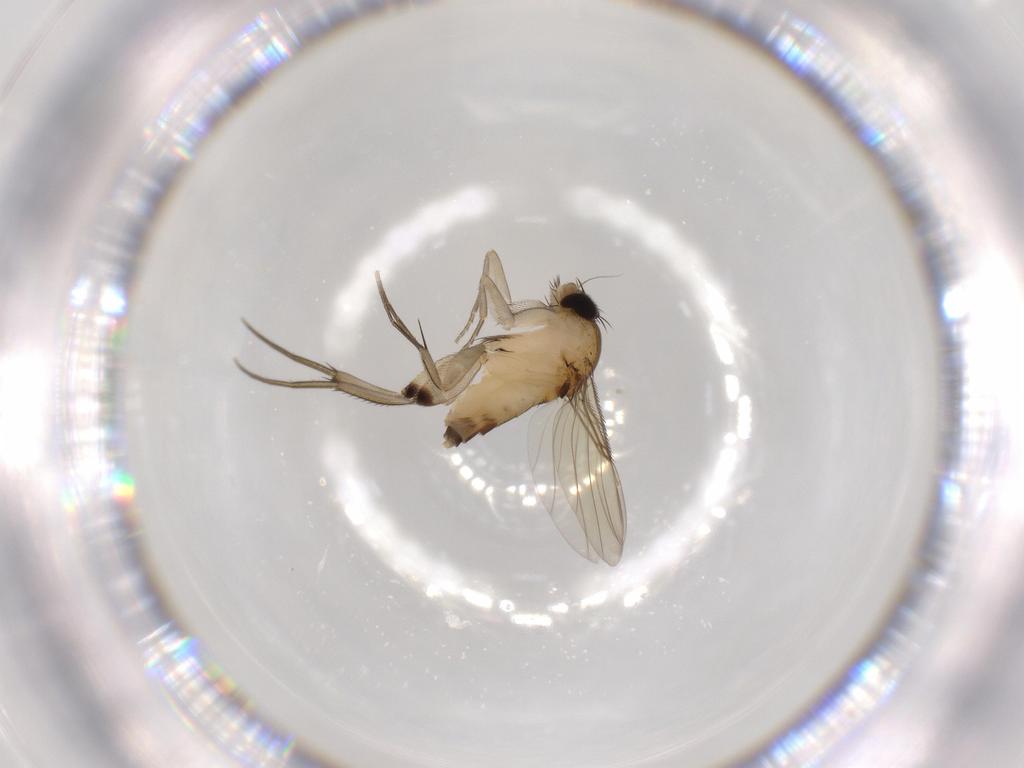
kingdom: Animalia
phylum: Arthropoda
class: Insecta
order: Diptera
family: Phoridae
